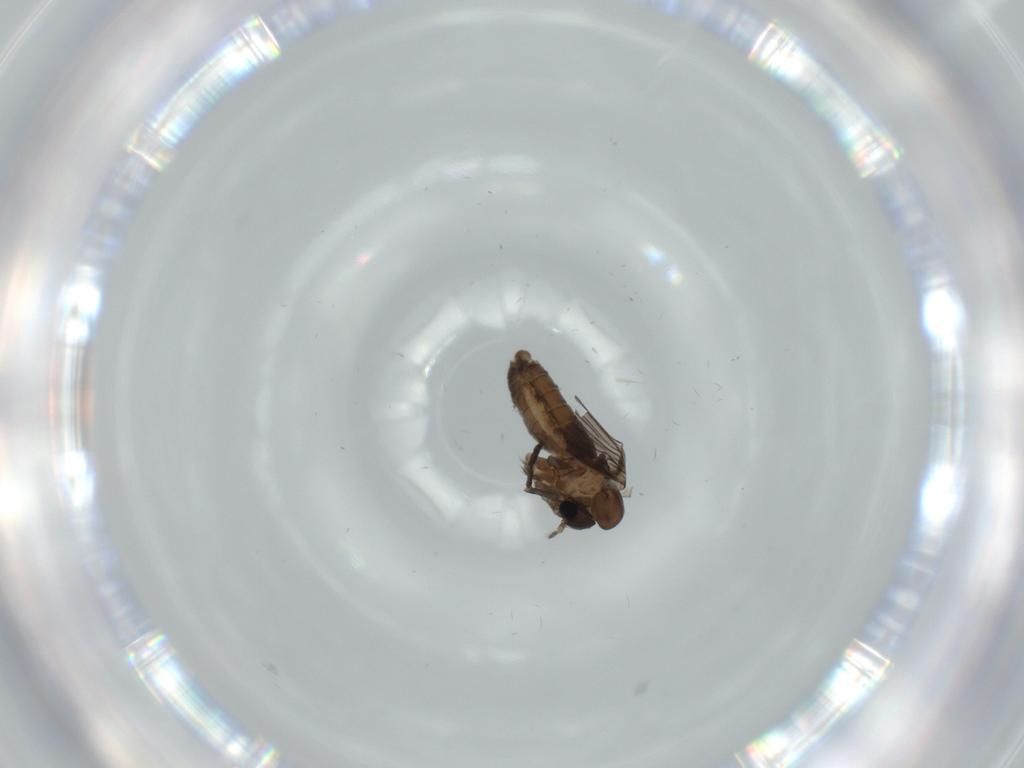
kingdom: Animalia
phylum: Arthropoda
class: Insecta
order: Diptera
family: Psychodidae
